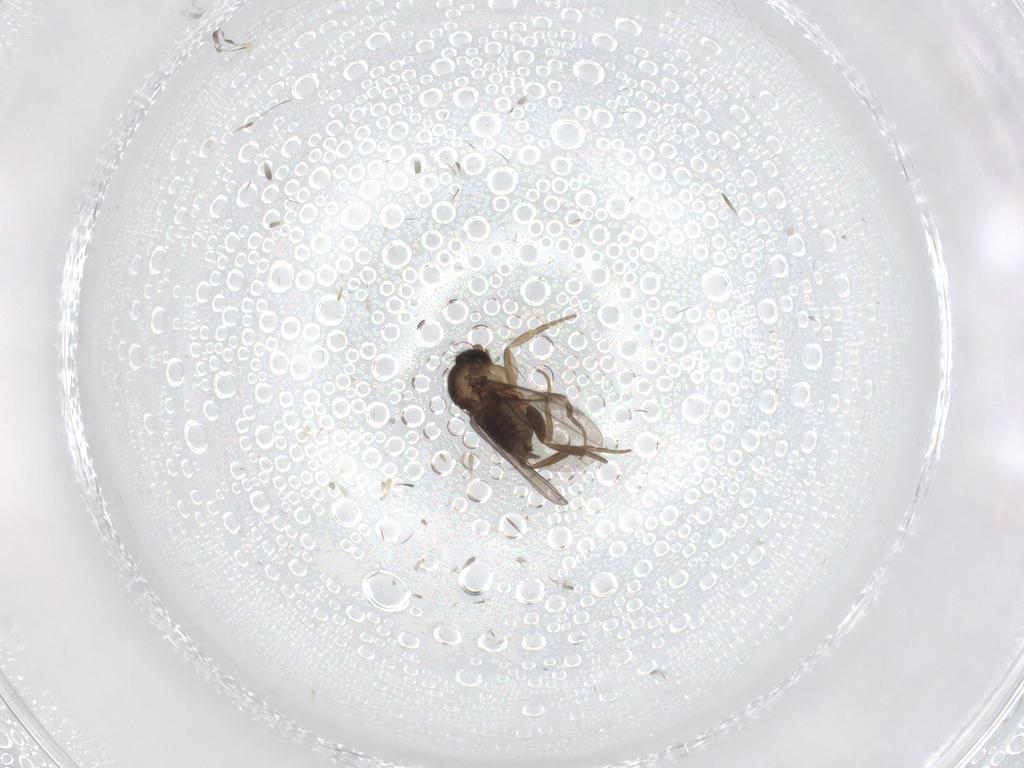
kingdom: Animalia
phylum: Arthropoda
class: Insecta
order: Diptera
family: Phoridae
